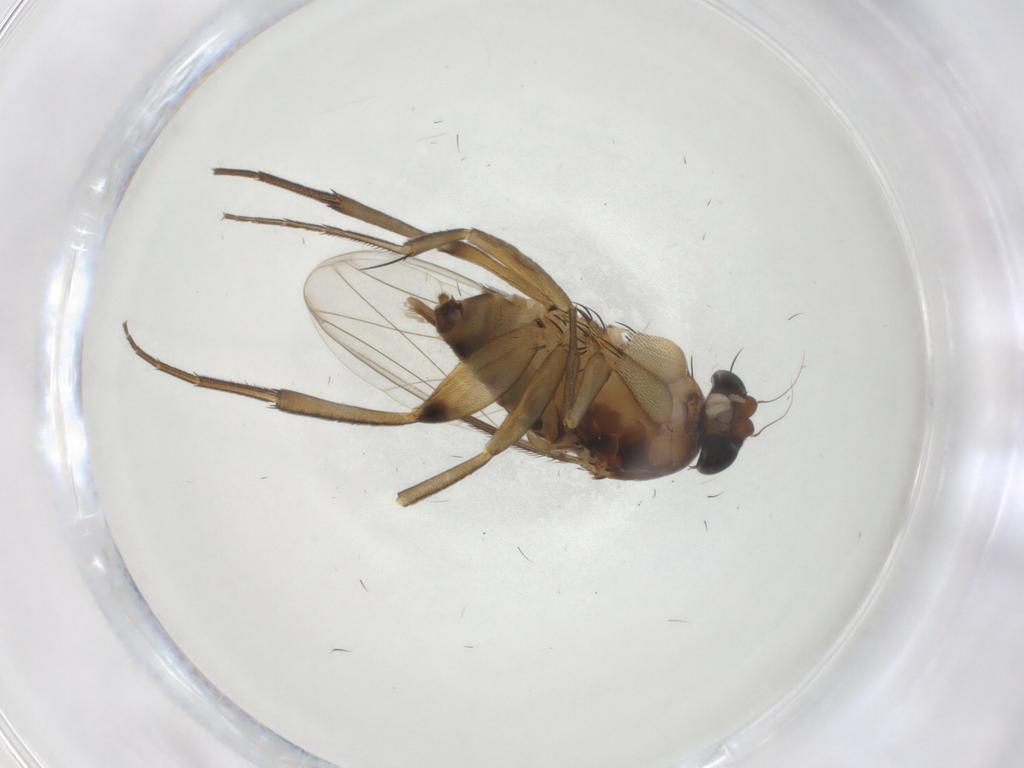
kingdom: Animalia
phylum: Arthropoda
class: Insecta
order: Diptera
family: Phoridae
